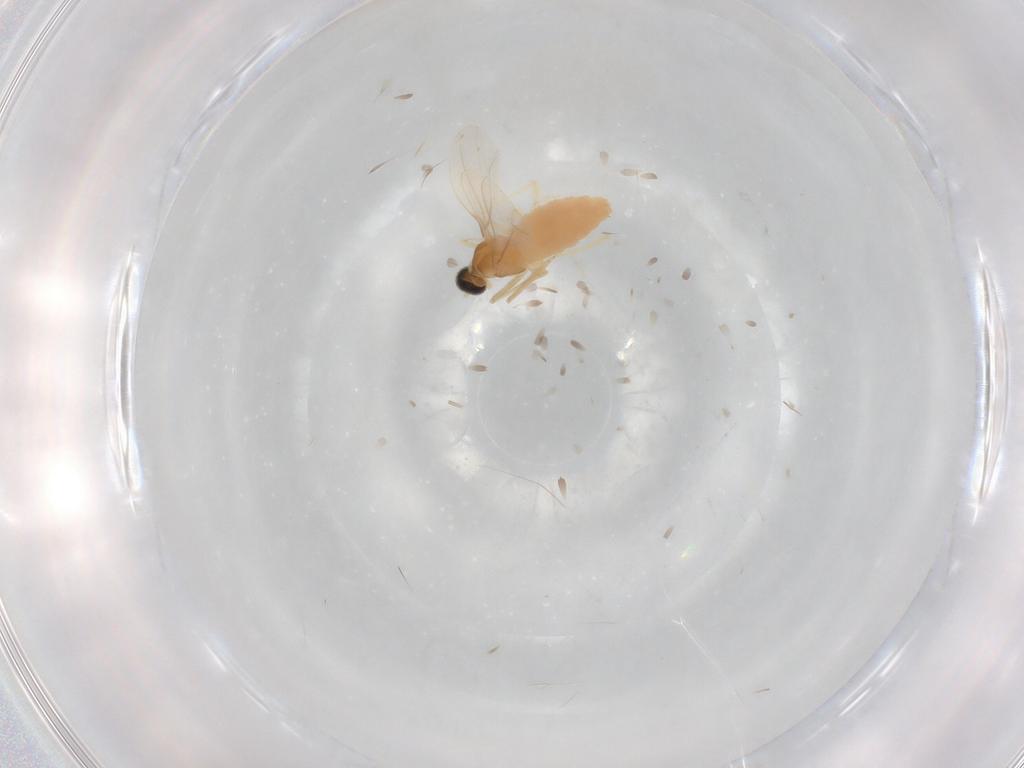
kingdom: Animalia
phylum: Arthropoda
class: Insecta
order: Diptera
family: Cecidomyiidae
